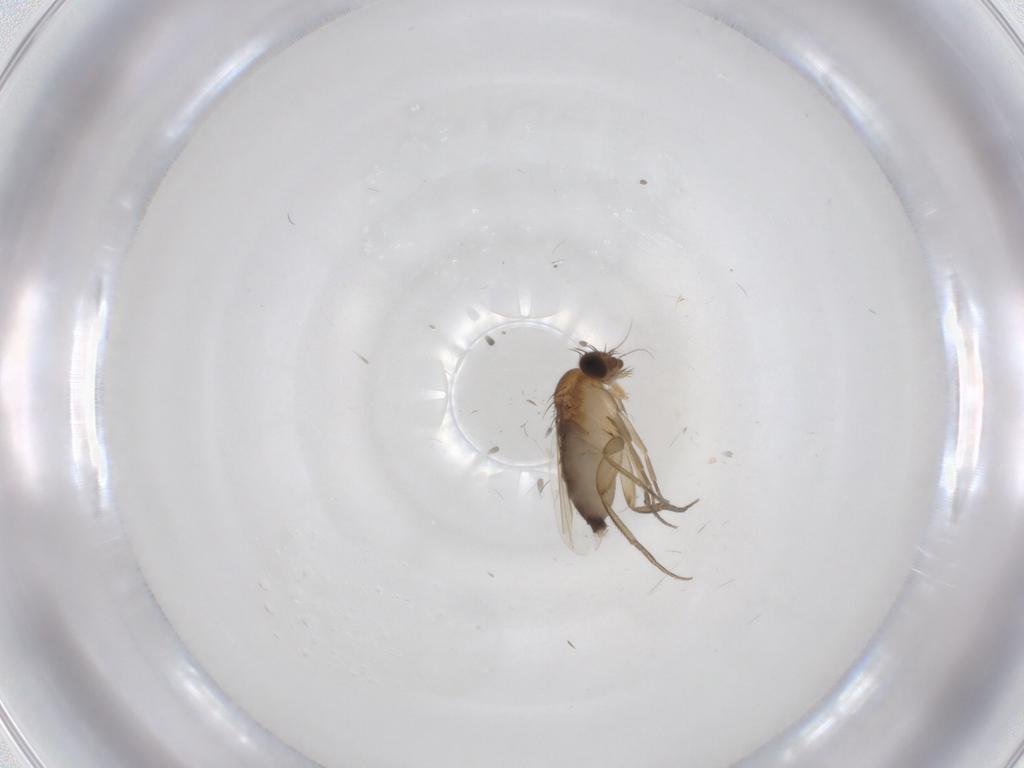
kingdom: Animalia
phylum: Arthropoda
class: Insecta
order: Diptera
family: Phoridae
